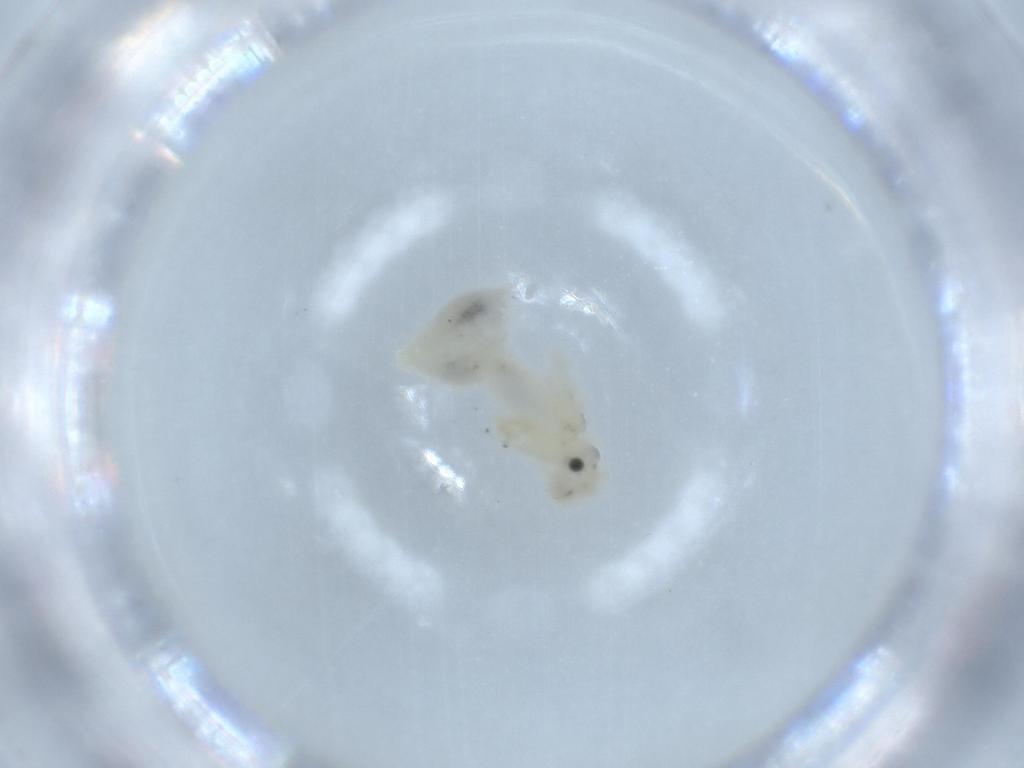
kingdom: Animalia
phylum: Arthropoda
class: Insecta
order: Psocodea
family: Caeciliusidae
